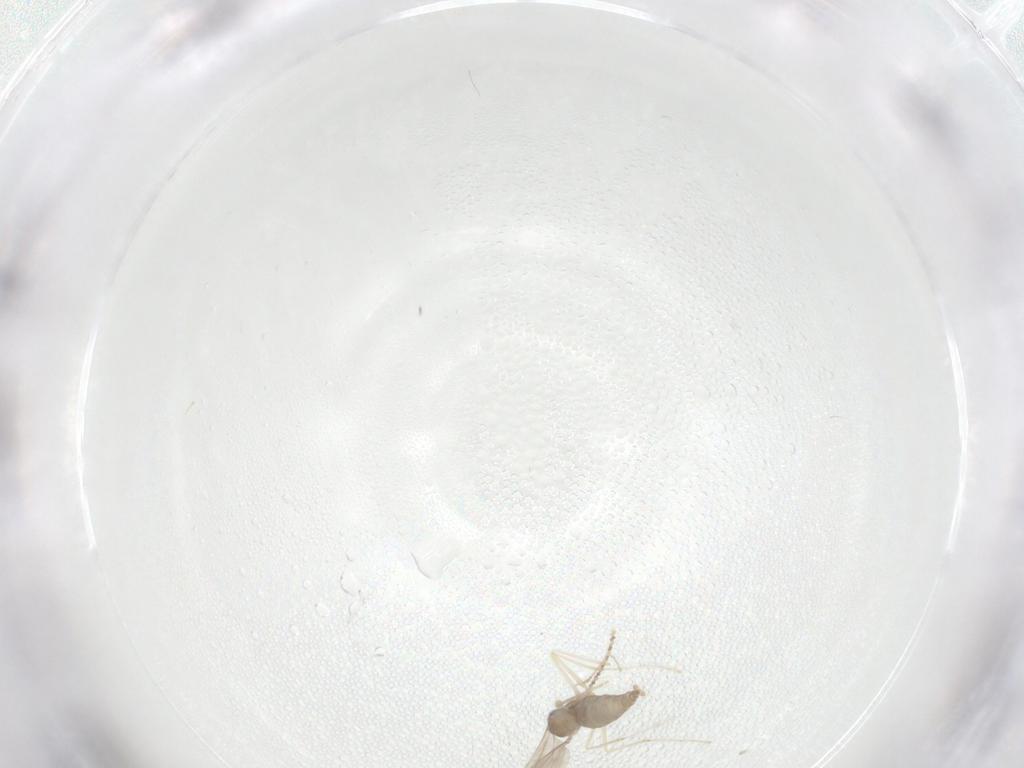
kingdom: Animalia
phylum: Arthropoda
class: Insecta
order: Diptera
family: Cecidomyiidae
